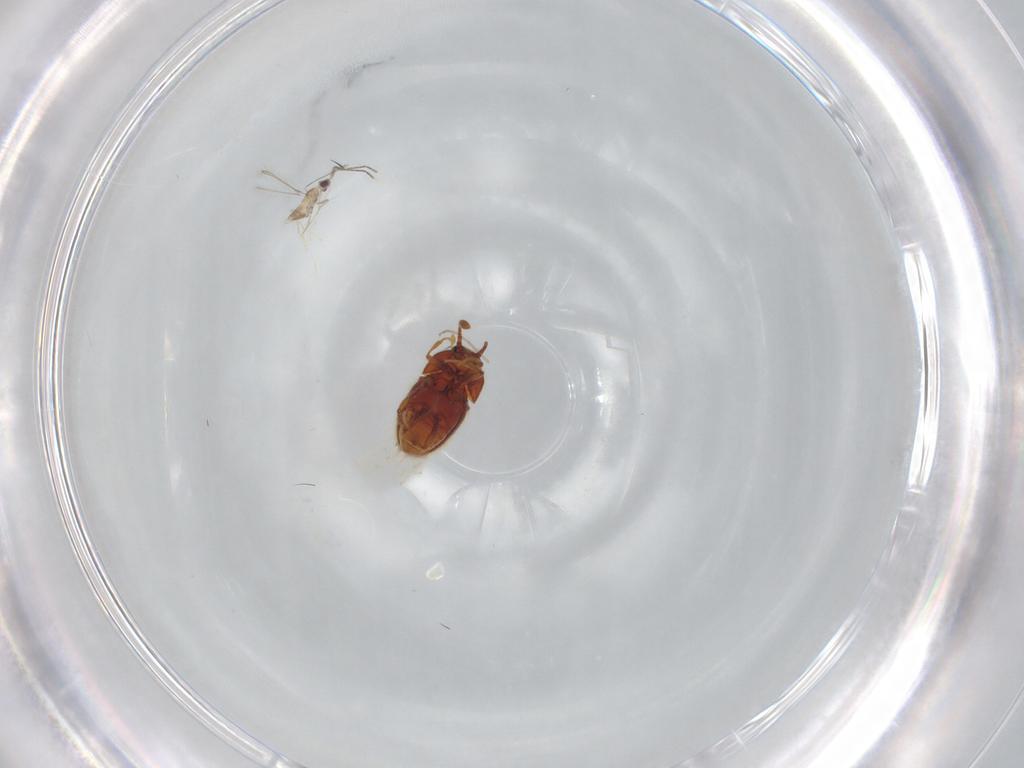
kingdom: Animalia
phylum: Arthropoda
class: Insecta
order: Coleoptera
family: Staphylinidae
